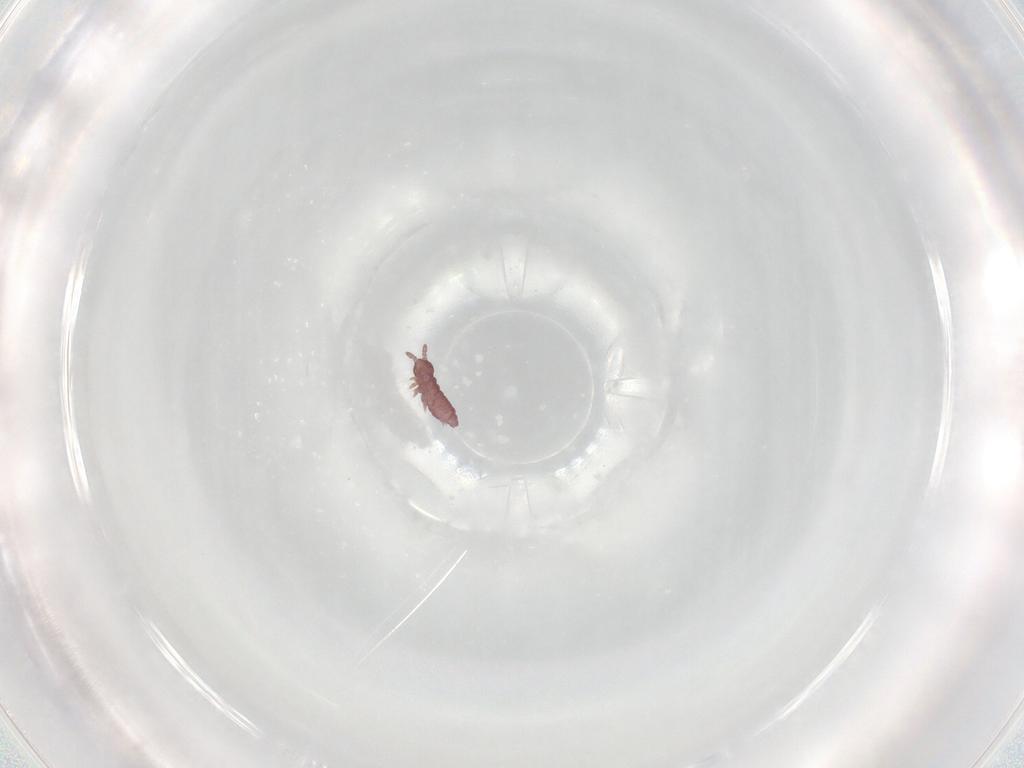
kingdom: Animalia
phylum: Arthropoda
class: Collembola
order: Poduromorpha
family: Hypogastruridae
